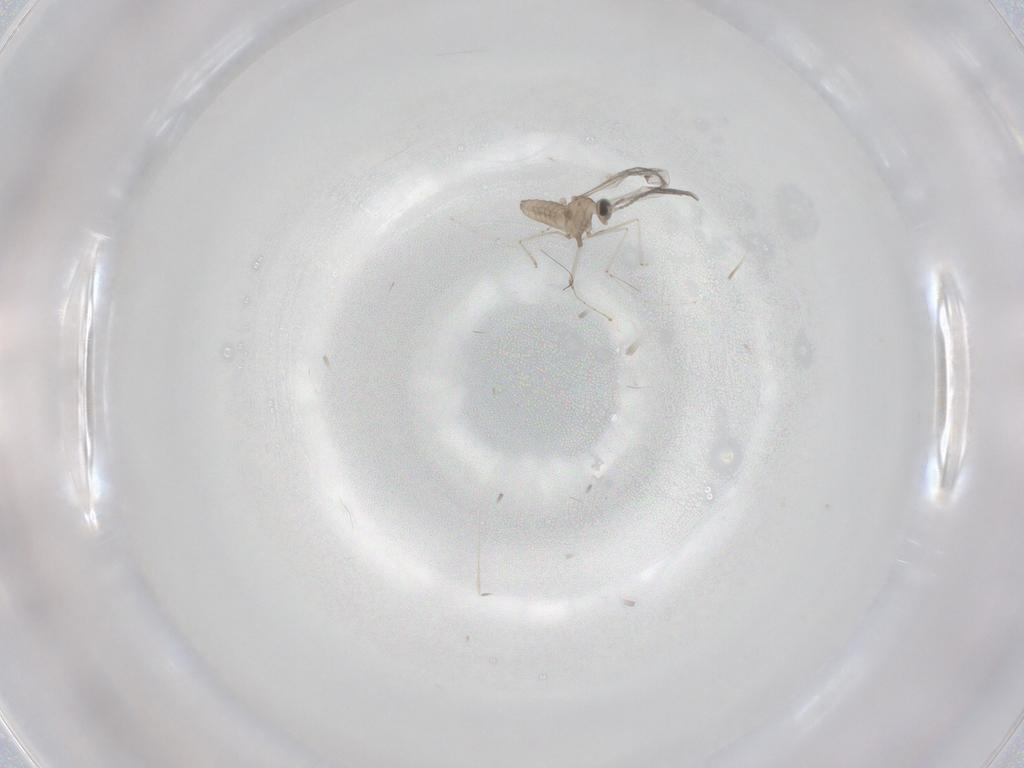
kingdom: Animalia
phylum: Arthropoda
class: Insecta
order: Diptera
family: Cecidomyiidae
